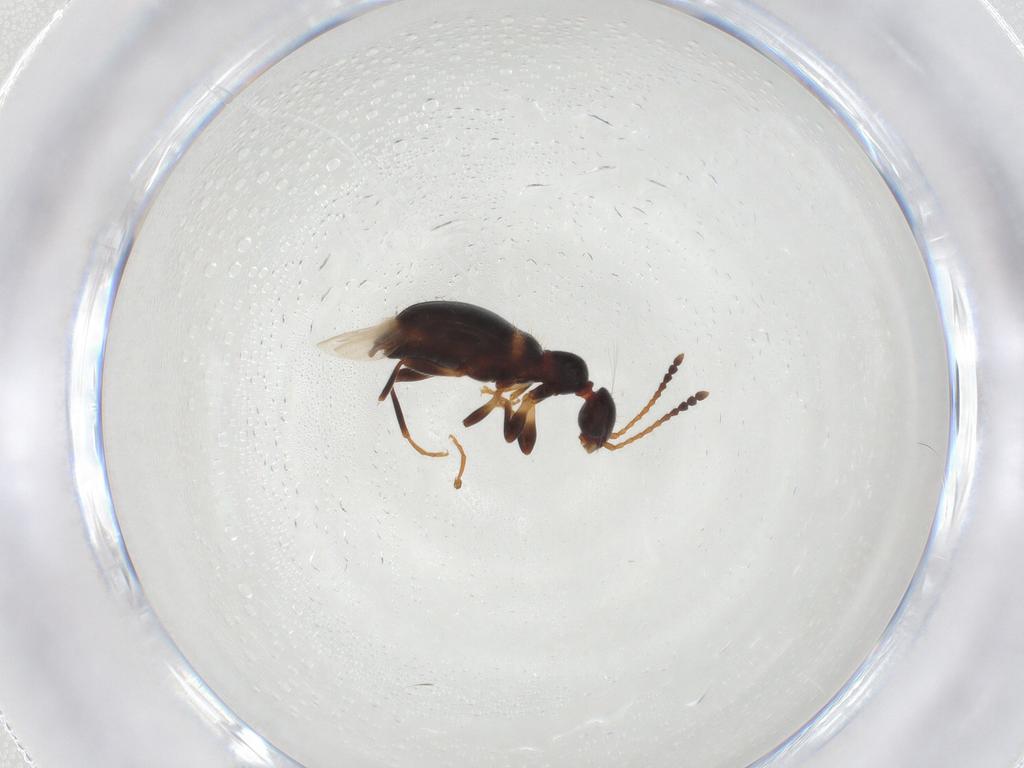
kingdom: Animalia
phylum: Arthropoda
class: Insecta
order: Coleoptera
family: Anthicidae
